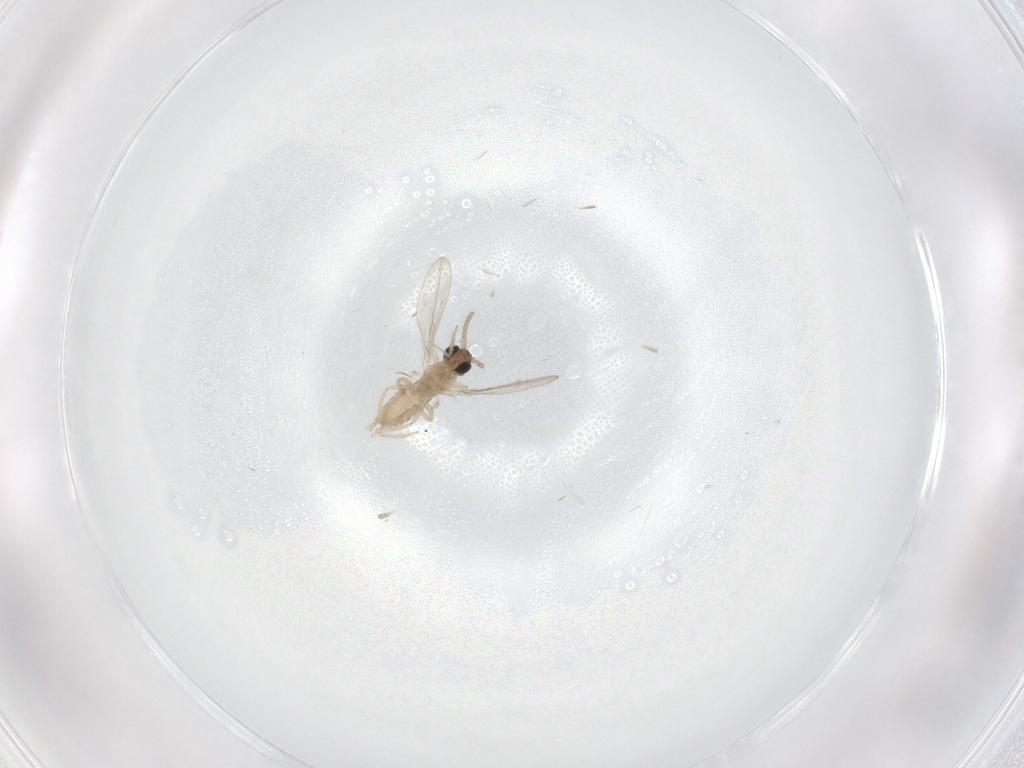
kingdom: Animalia
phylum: Arthropoda
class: Insecta
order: Diptera
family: Cecidomyiidae
